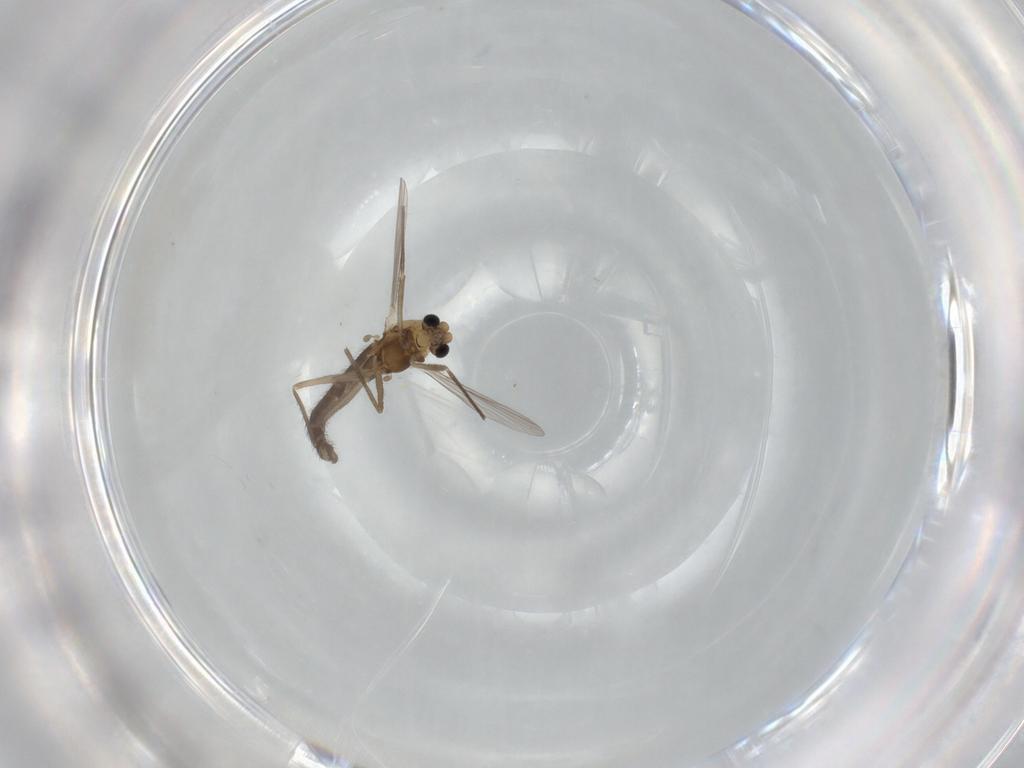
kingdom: Animalia
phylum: Arthropoda
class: Insecta
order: Diptera
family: Chironomidae
